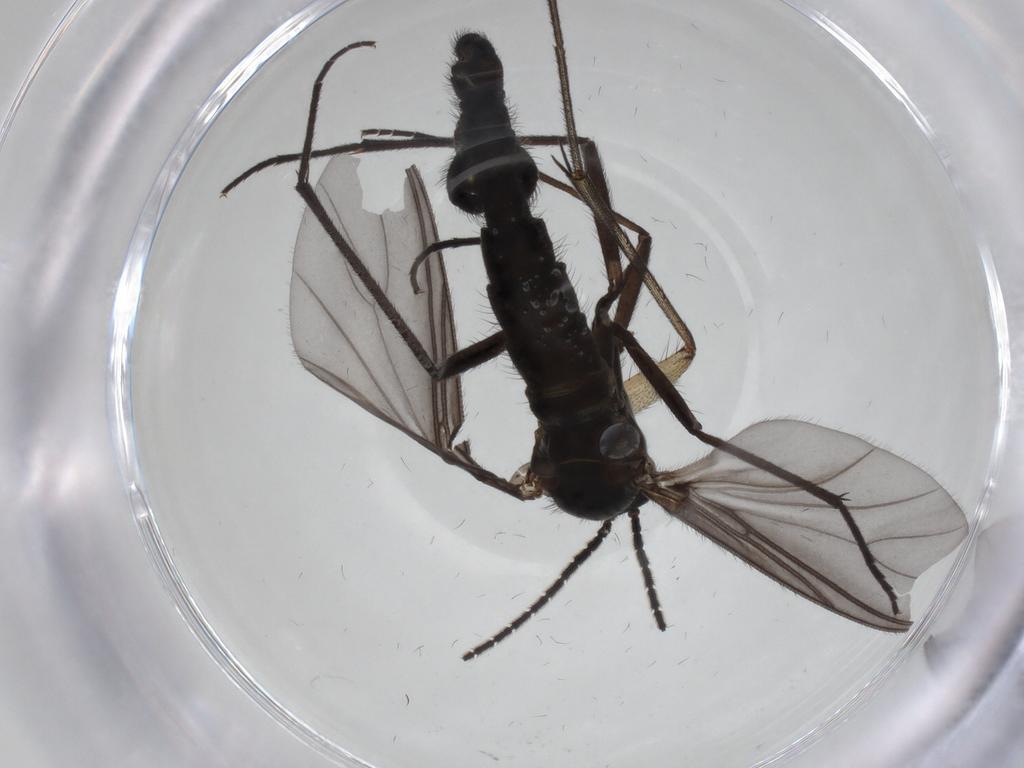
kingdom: Animalia
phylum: Arthropoda
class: Insecta
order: Diptera
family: Mycetophilidae
